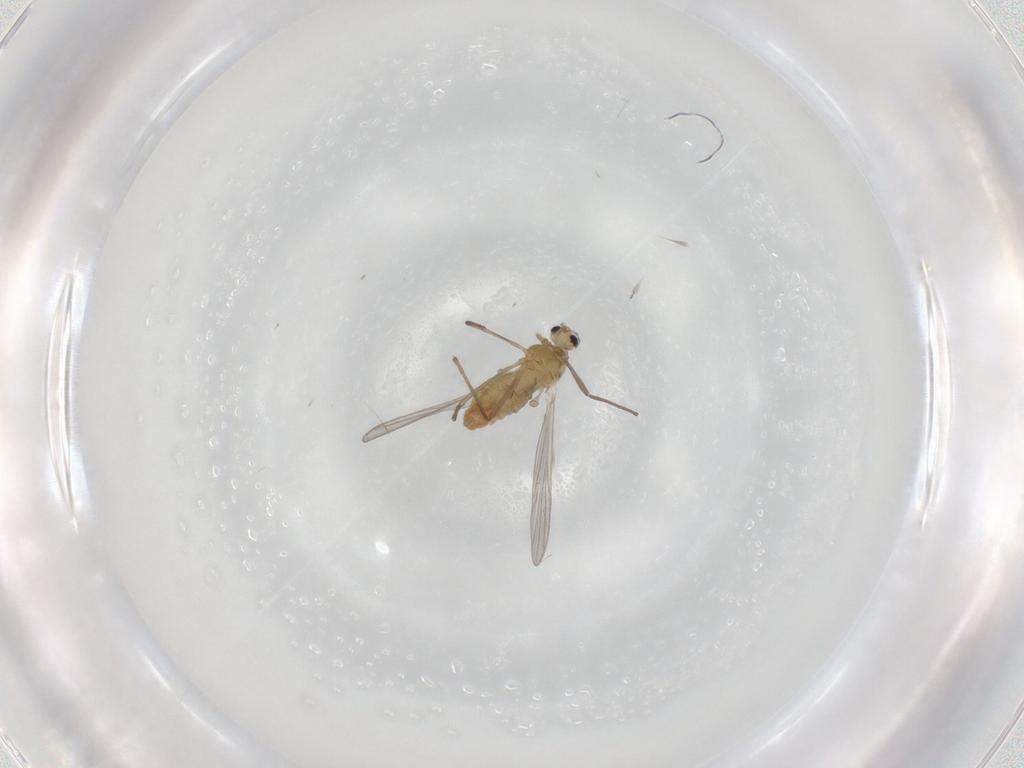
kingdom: Animalia
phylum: Arthropoda
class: Insecta
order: Diptera
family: Chironomidae
